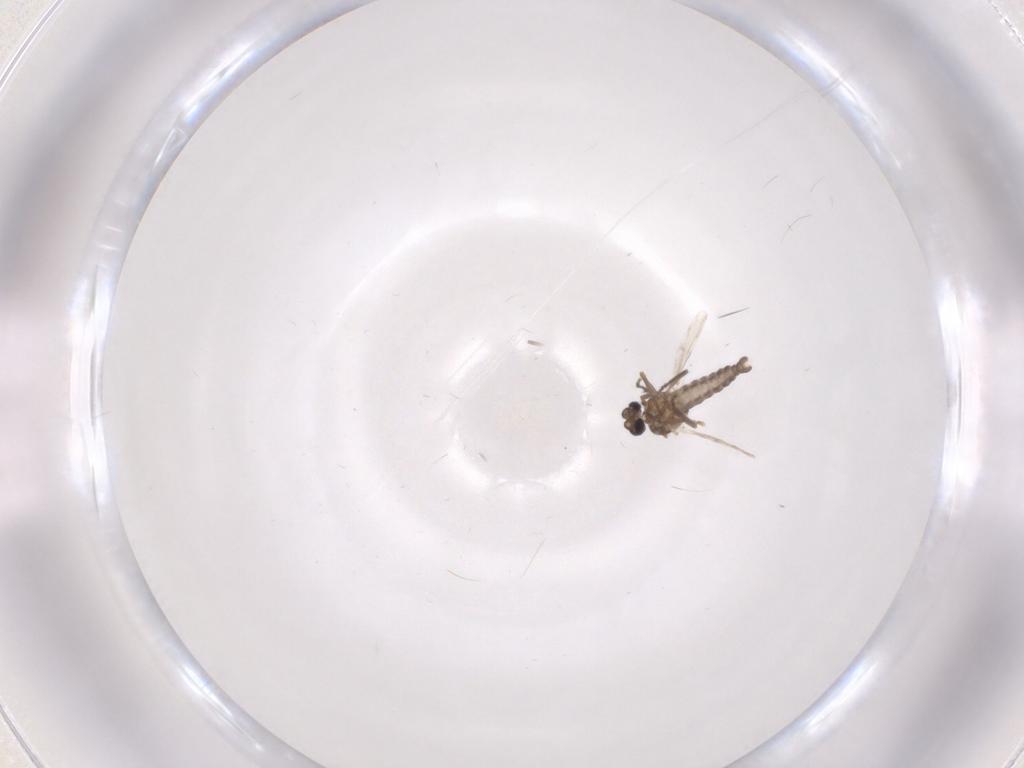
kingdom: Animalia
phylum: Arthropoda
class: Insecta
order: Diptera
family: Ceratopogonidae
